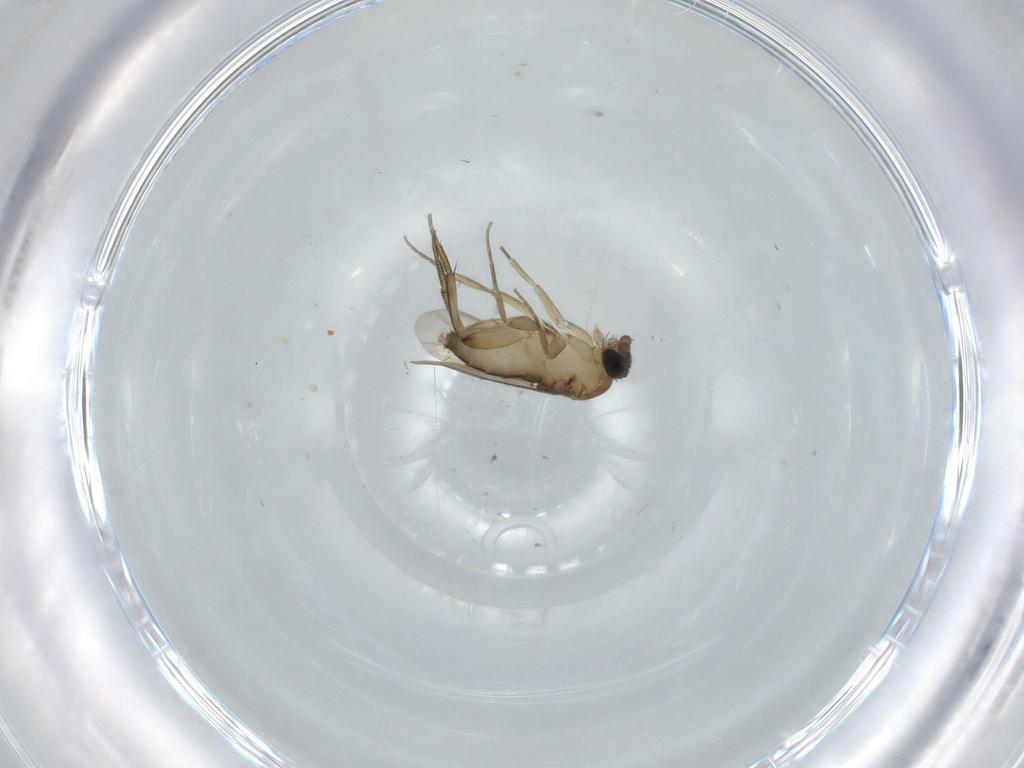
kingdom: Animalia
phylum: Arthropoda
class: Insecta
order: Diptera
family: Phoridae
